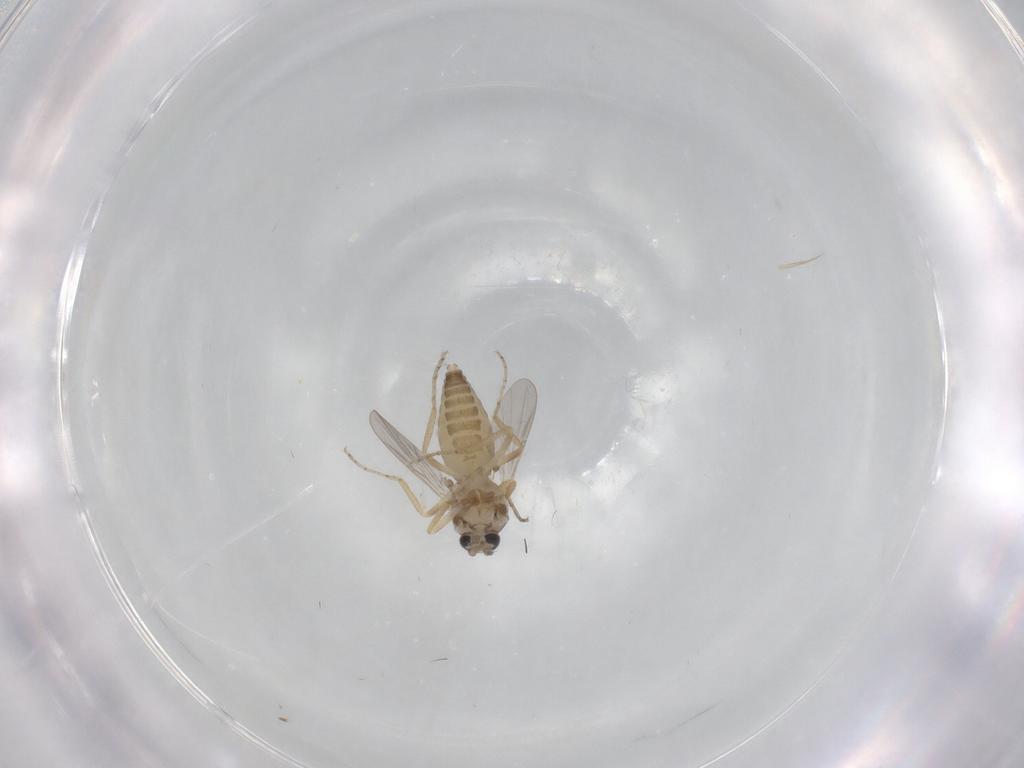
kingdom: Animalia
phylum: Arthropoda
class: Insecta
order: Diptera
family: Ceratopogonidae
